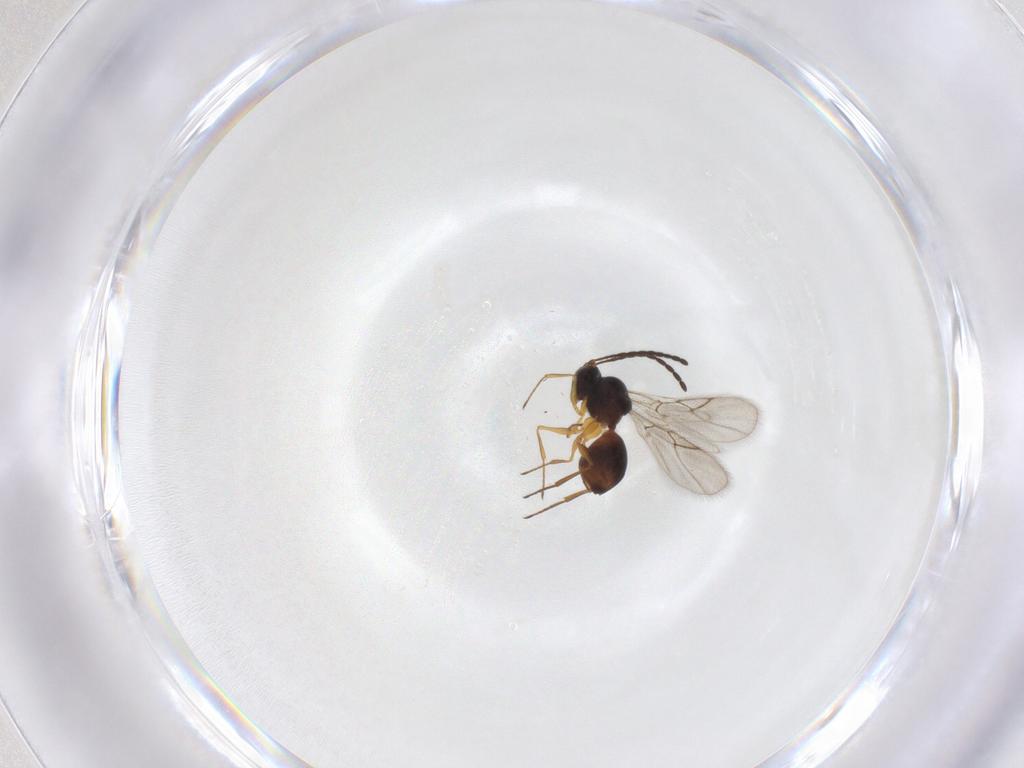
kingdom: Animalia
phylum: Arthropoda
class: Insecta
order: Hymenoptera
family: Figitidae
